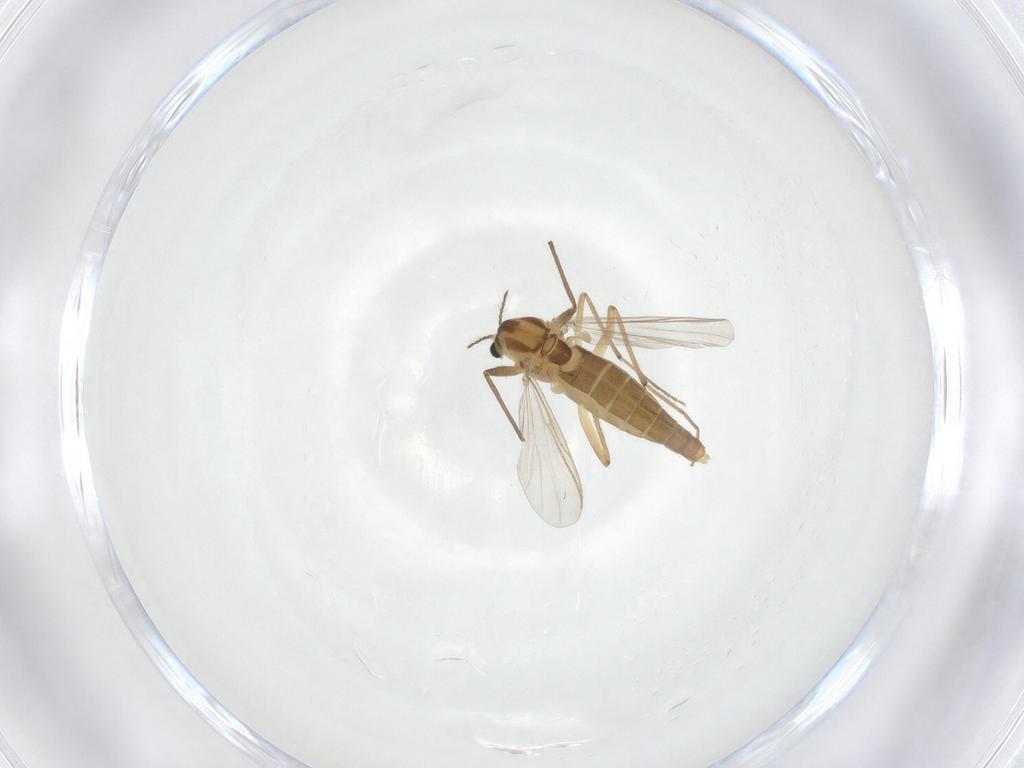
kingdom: Animalia
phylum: Arthropoda
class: Insecta
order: Diptera
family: Chironomidae
